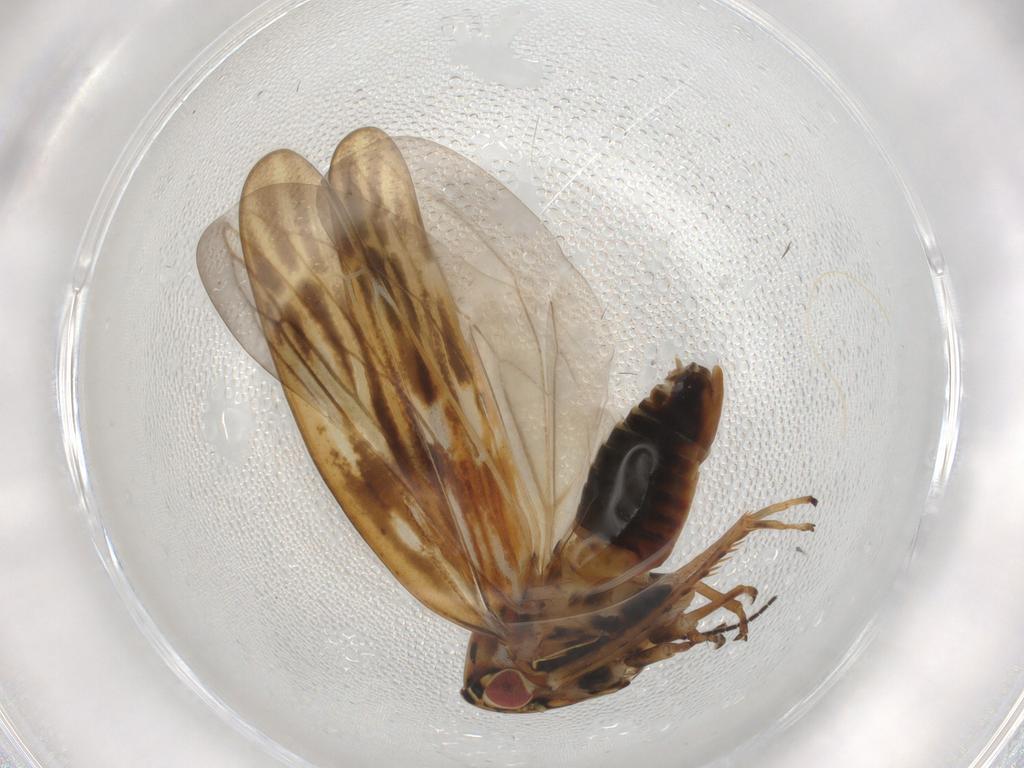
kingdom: Animalia
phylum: Arthropoda
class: Insecta
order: Hemiptera
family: Cicadellidae
